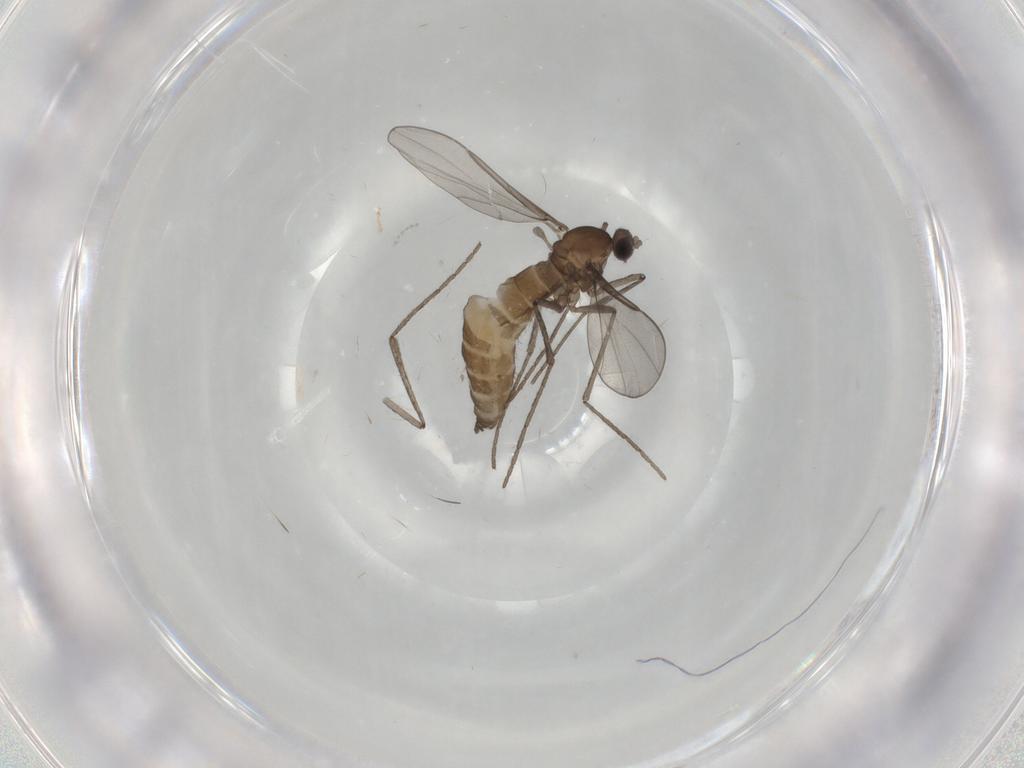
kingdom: Animalia
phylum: Arthropoda
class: Insecta
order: Diptera
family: Cecidomyiidae
